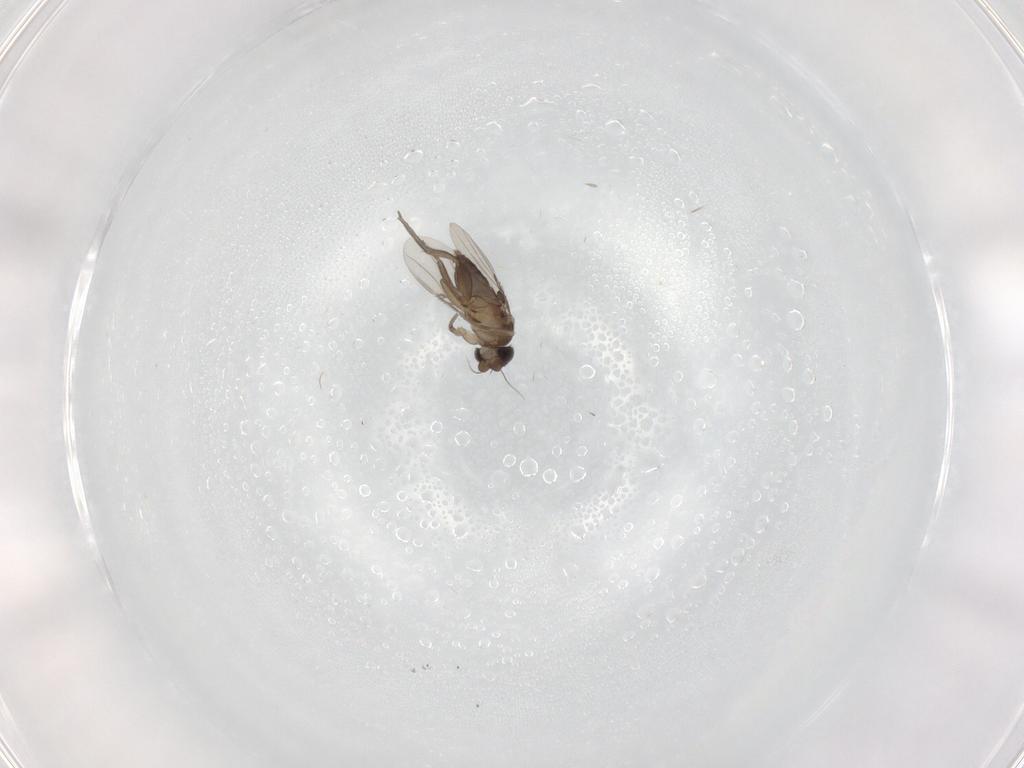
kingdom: Animalia
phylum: Arthropoda
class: Insecta
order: Diptera
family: Phoridae
